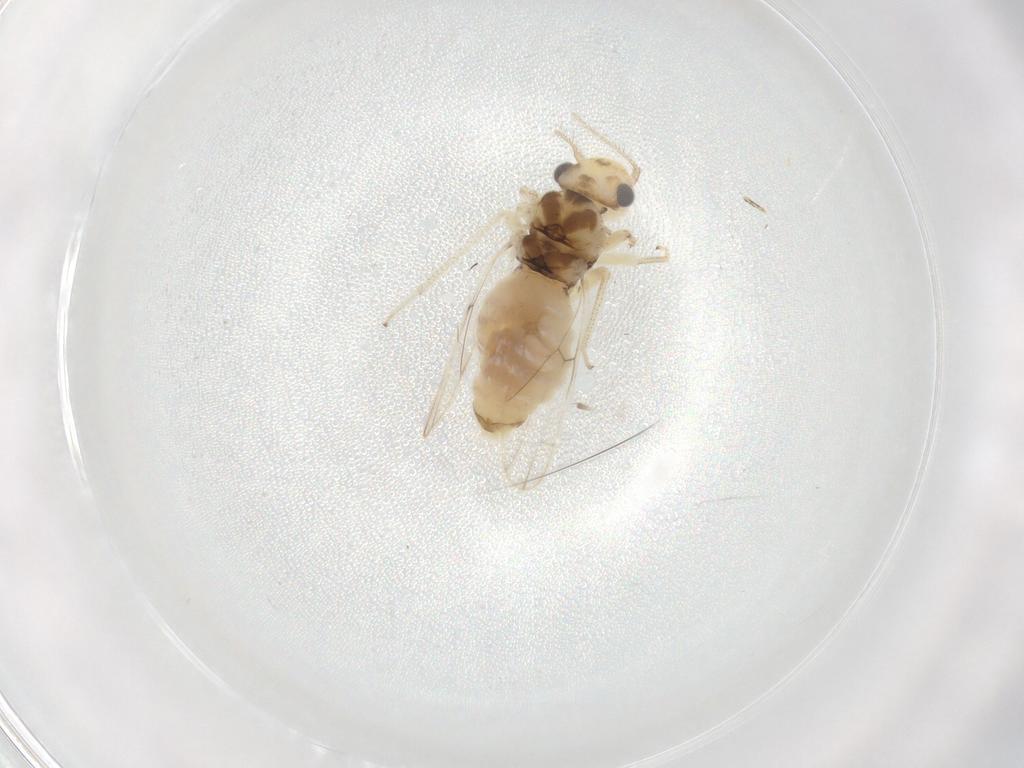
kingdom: Animalia
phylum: Arthropoda
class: Insecta
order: Psocodea
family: Caeciliusidae
